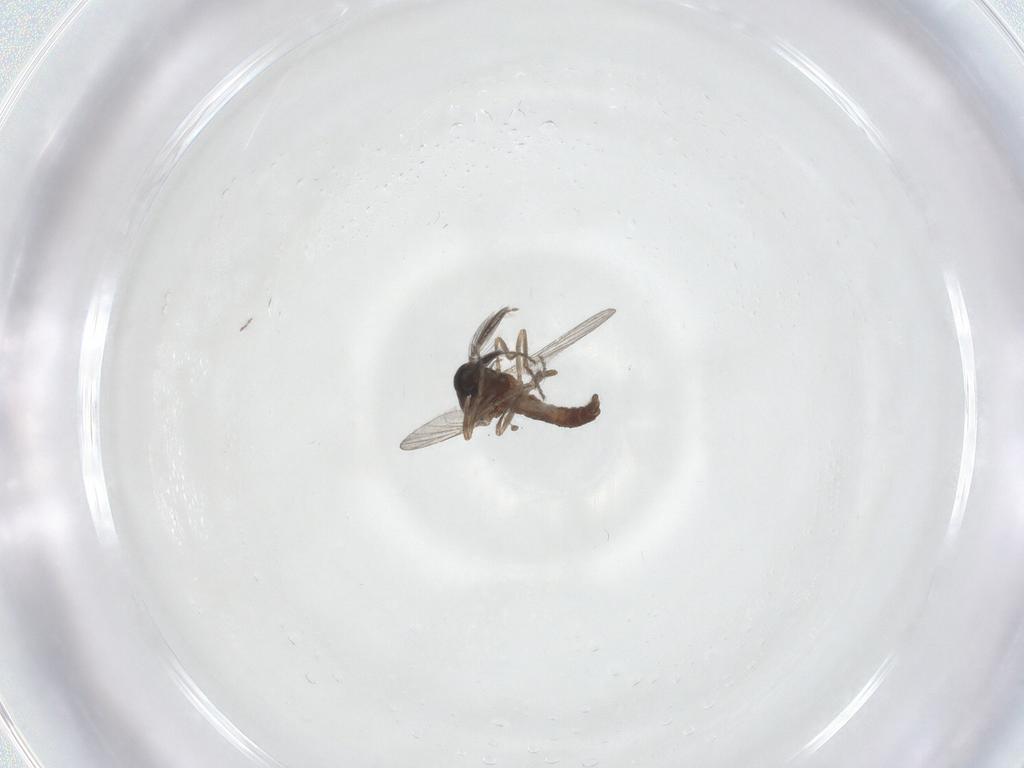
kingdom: Animalia
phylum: Arthropoda
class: Insecta
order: Diptera
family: Ceratopogonidae
